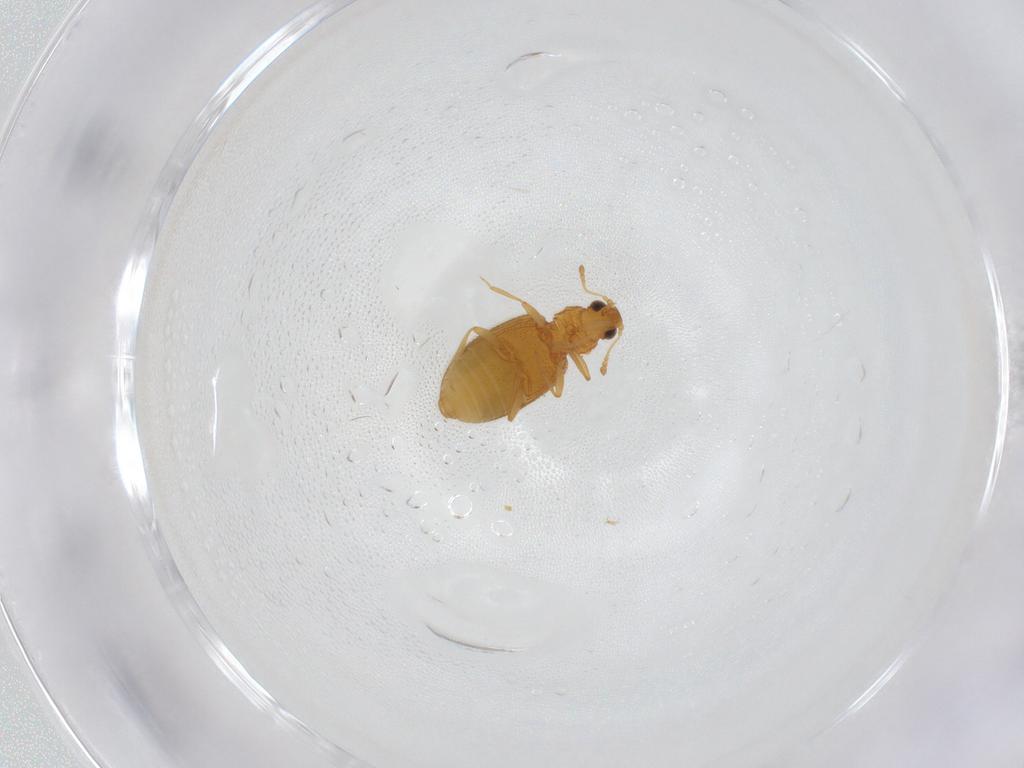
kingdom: Animalia
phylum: Arthropoda
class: Insecta
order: Coleoptera
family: Latridiidae
